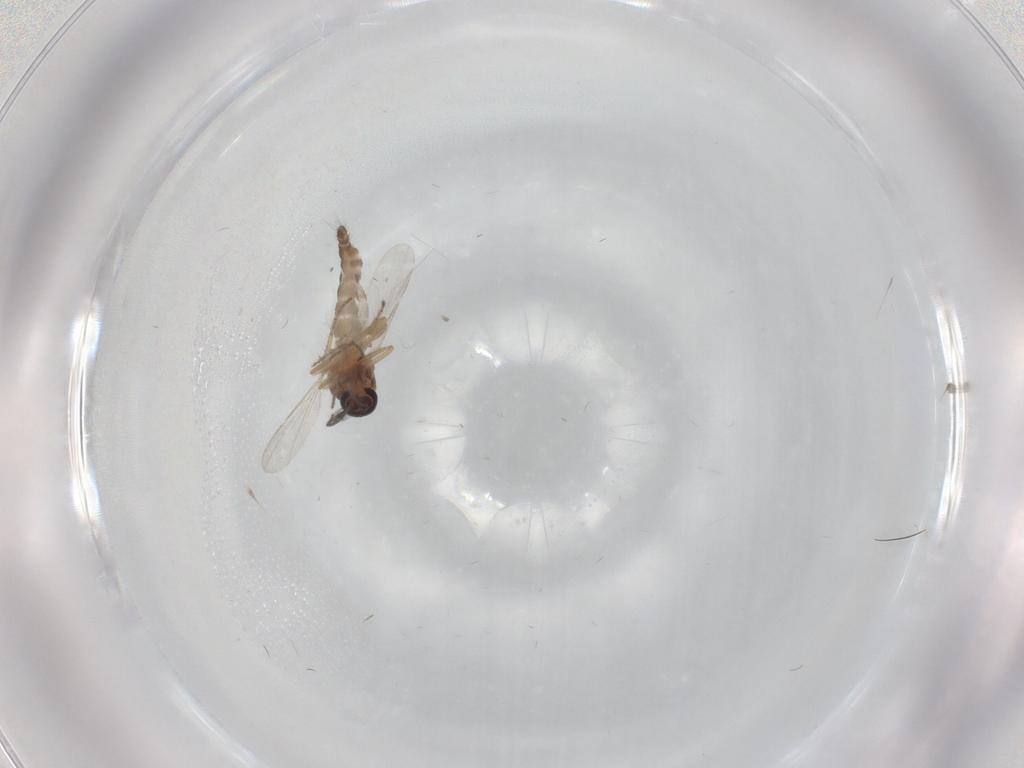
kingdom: Animalia
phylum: Arthropoda
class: Insecta
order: Diptera
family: Ceratopogonidae
